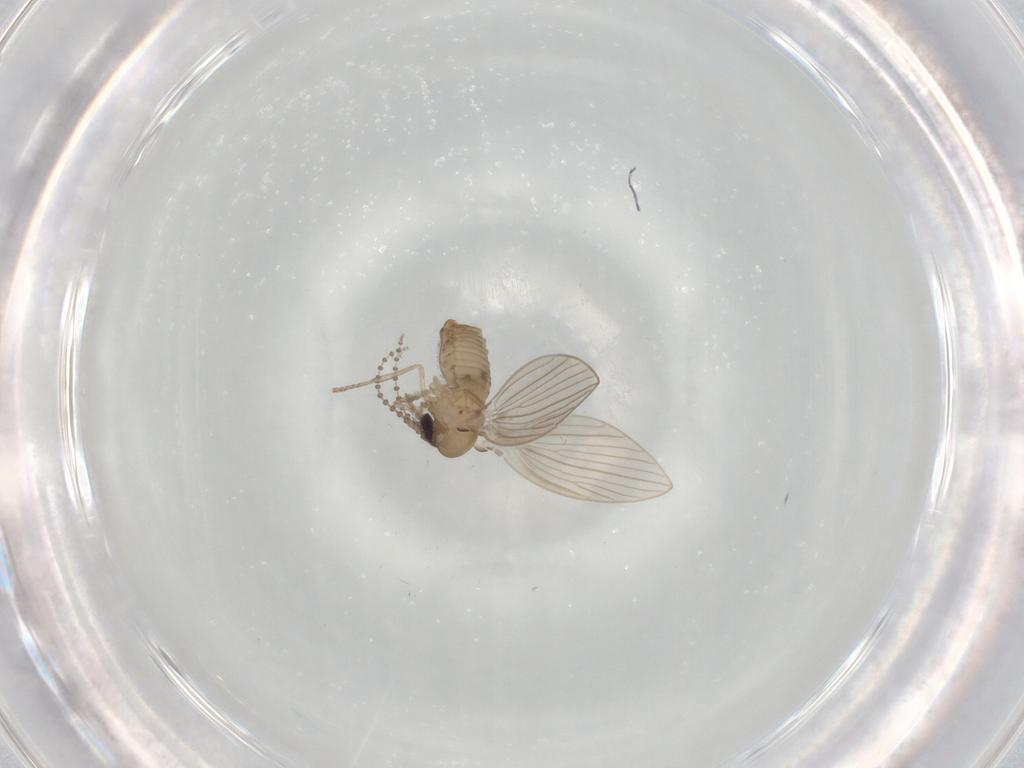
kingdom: Animalia
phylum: Arthropoda
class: Insecta
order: Diptera
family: Psychodidae
